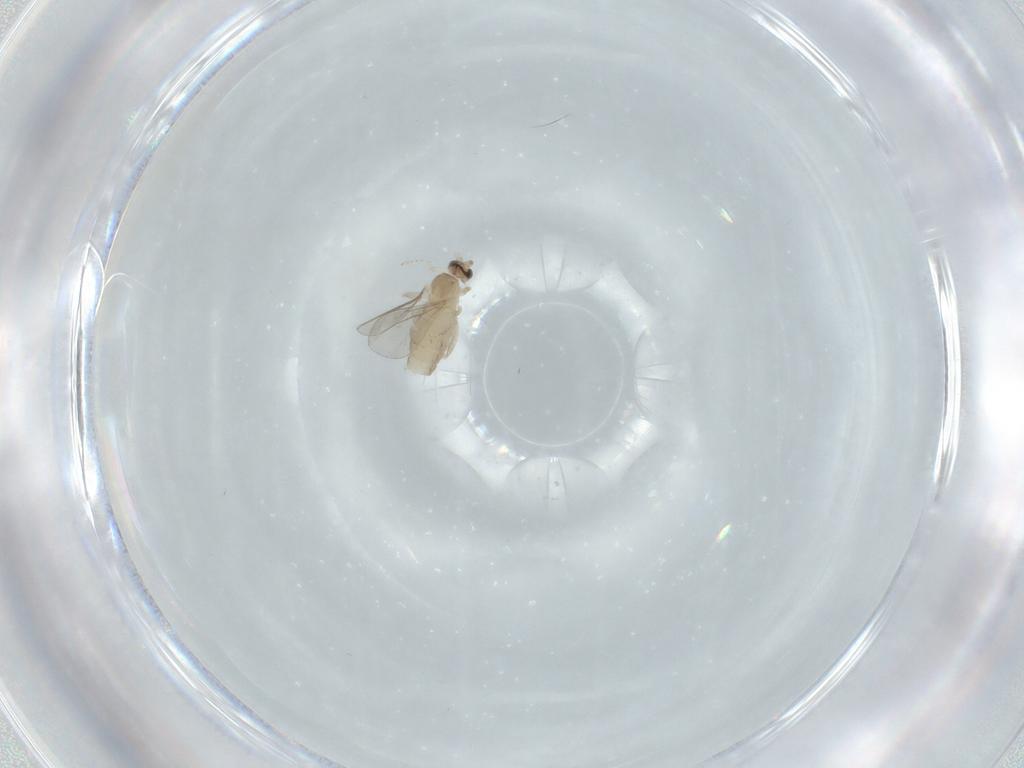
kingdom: Animalia
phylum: Arthropoda
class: Insecta
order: Diptera
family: Cecidomyiidae
